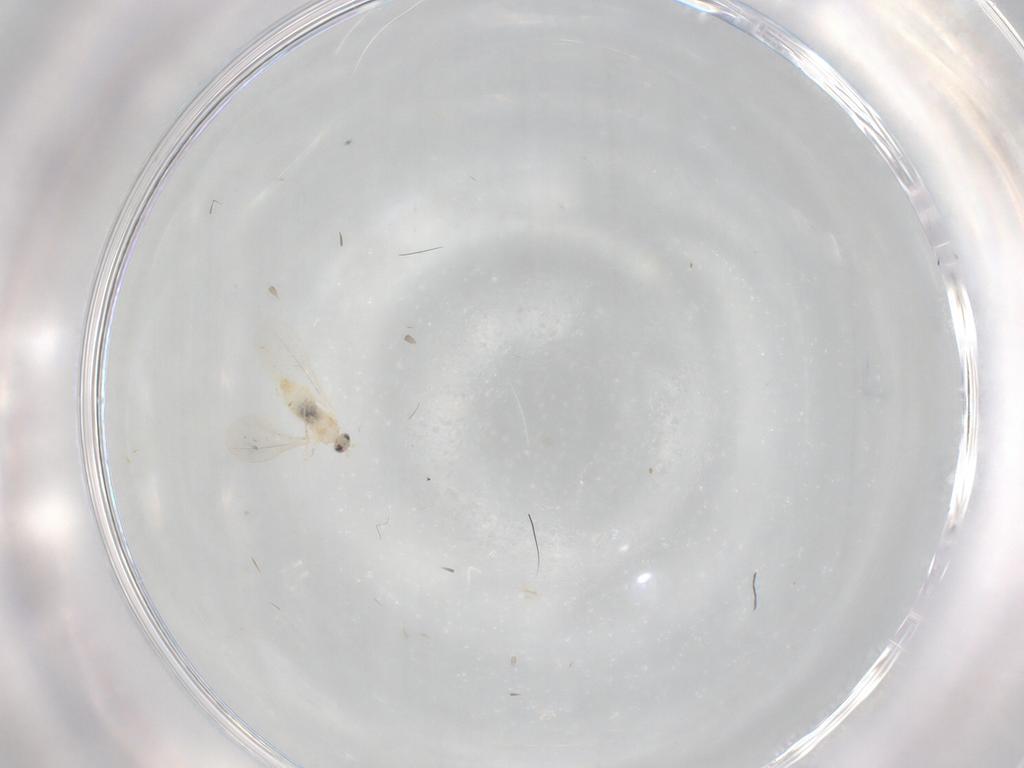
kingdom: Animalia
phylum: Arthropoda
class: Insecta
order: Diptera
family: Cecidomyiidae
